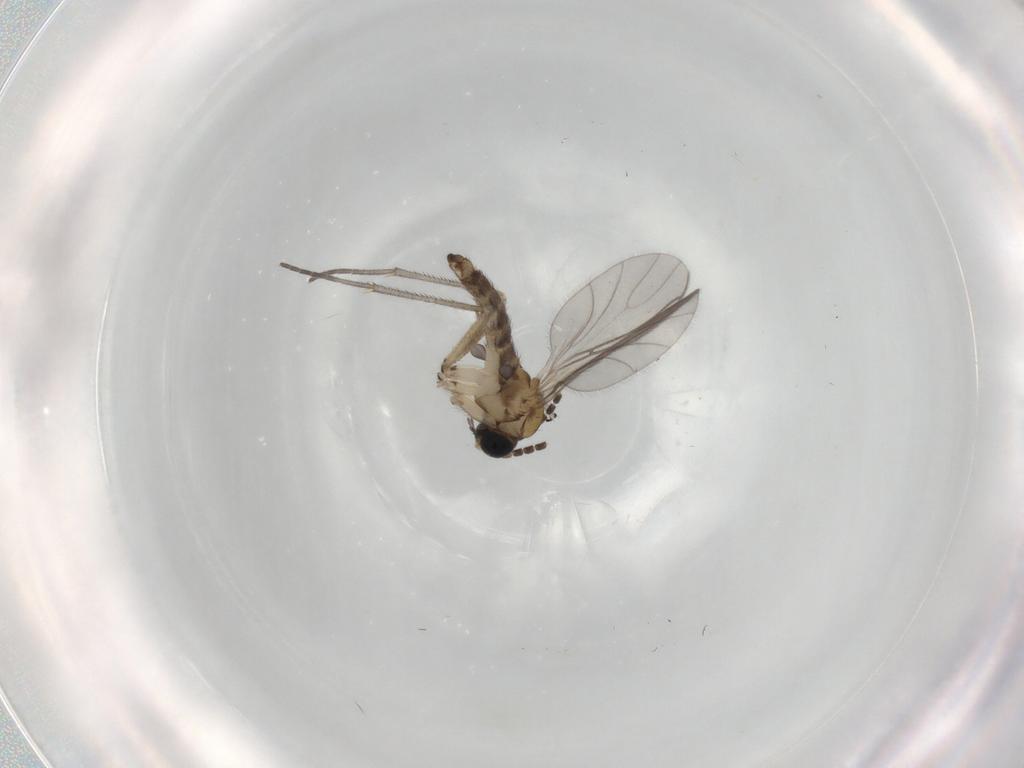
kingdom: Animalia
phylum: Arthropoda
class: Insecta
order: Diptera
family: Sciaridae
